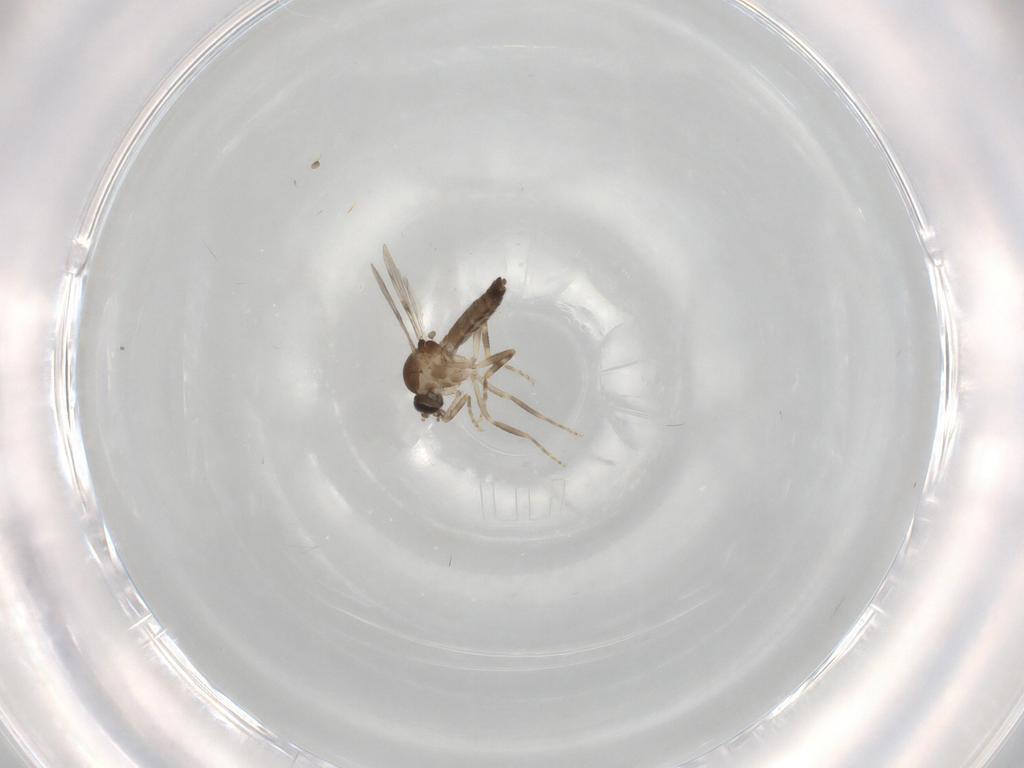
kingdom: Animalia
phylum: Arthropoda
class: Insecta
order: Diptera
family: Ceratopogonidae
